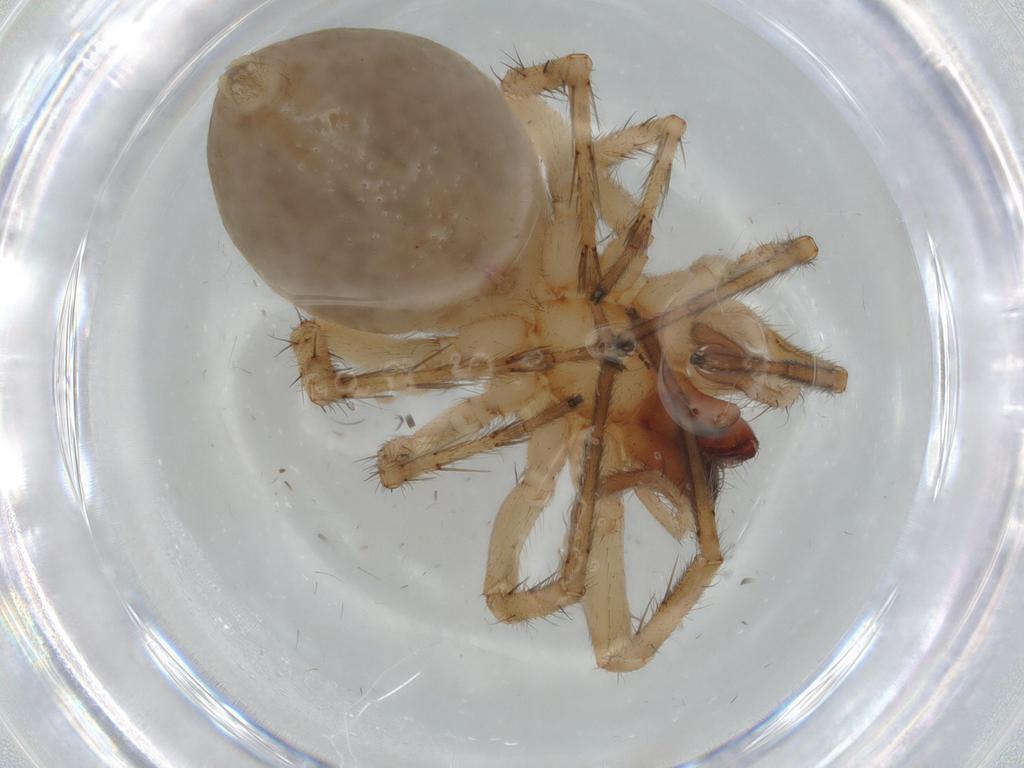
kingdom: Animalia
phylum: Arthropoda
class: Arachnida
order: Araneae
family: Anyphaenidae
